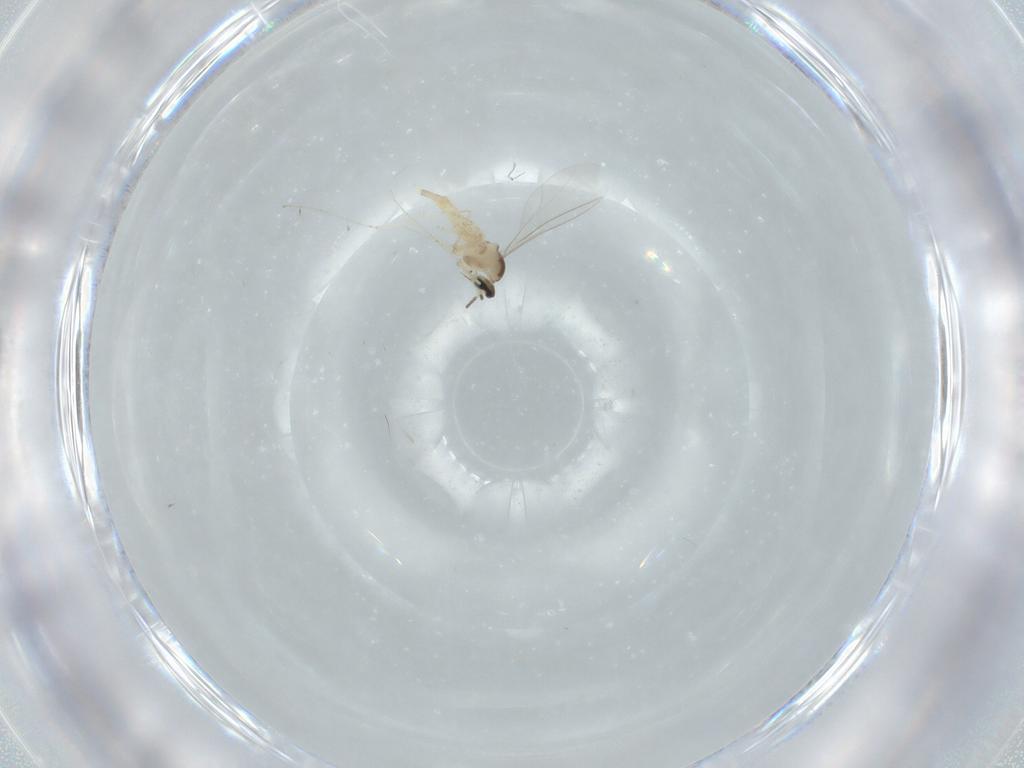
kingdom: Animalia
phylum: Arthropoda
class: Insecta
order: Diptera
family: Cecidomyiidae
